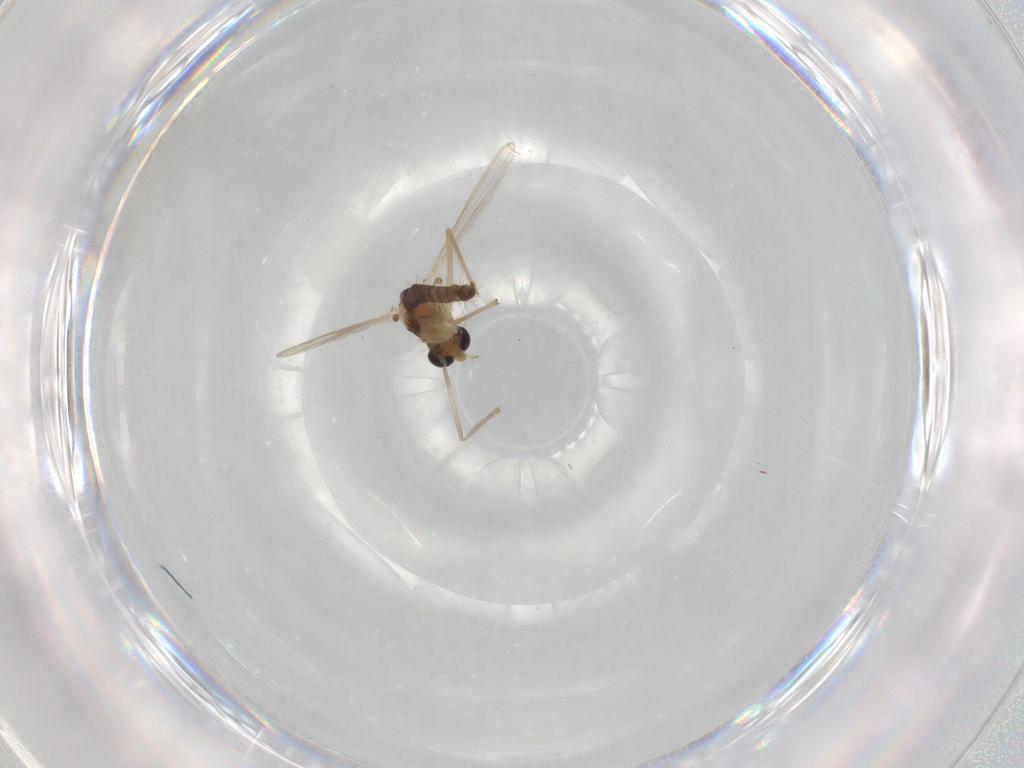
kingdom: Animalia
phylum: Arthropoda
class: Insecta
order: Diptera
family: Chironomidae
